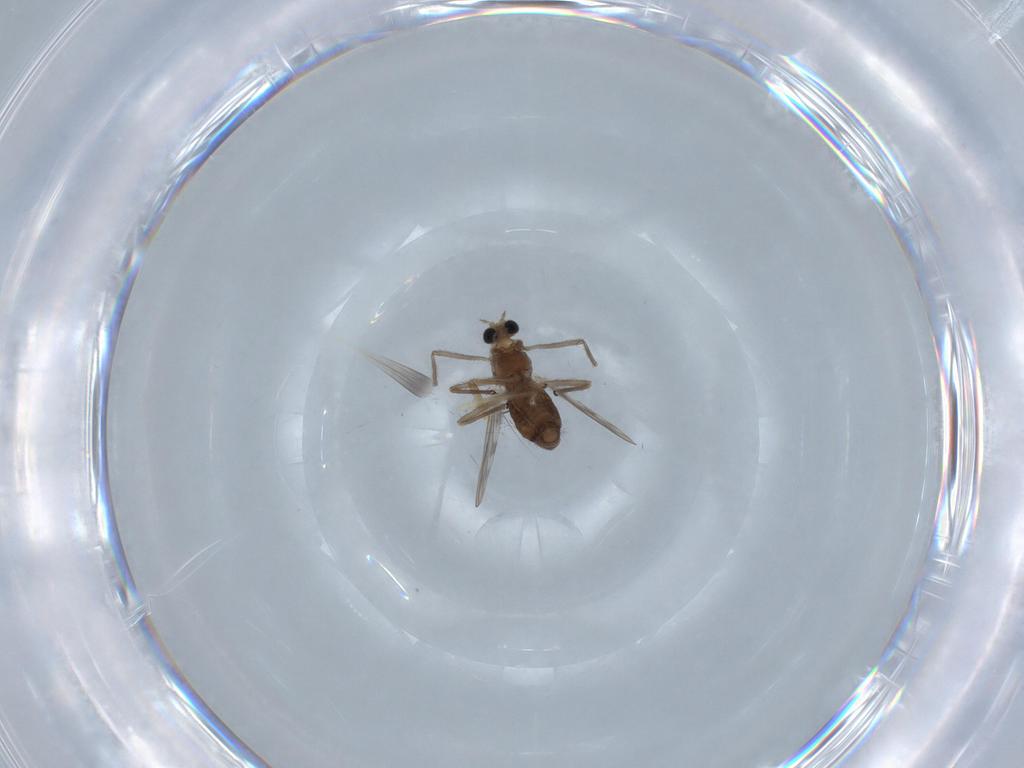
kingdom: Animalia
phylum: Arthropoda
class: Insecta
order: Diptera
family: Chironomidae
